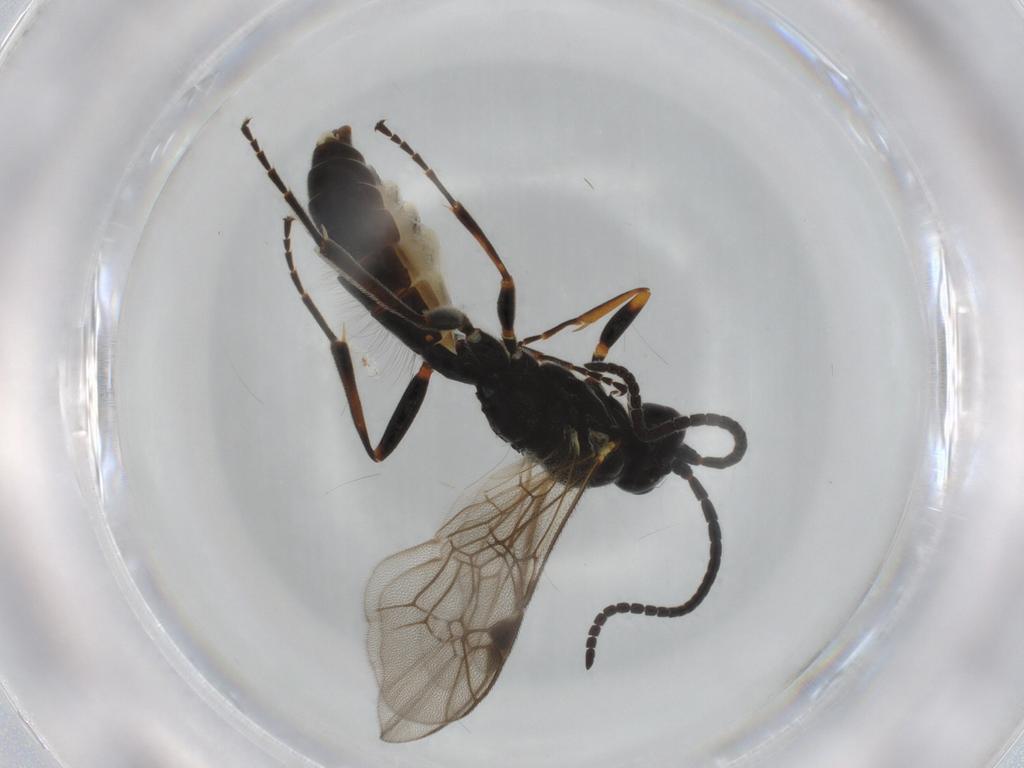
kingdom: Animalia
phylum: Arthropoda
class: Insecta
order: Hymenoptera
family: Ichneumonidae
